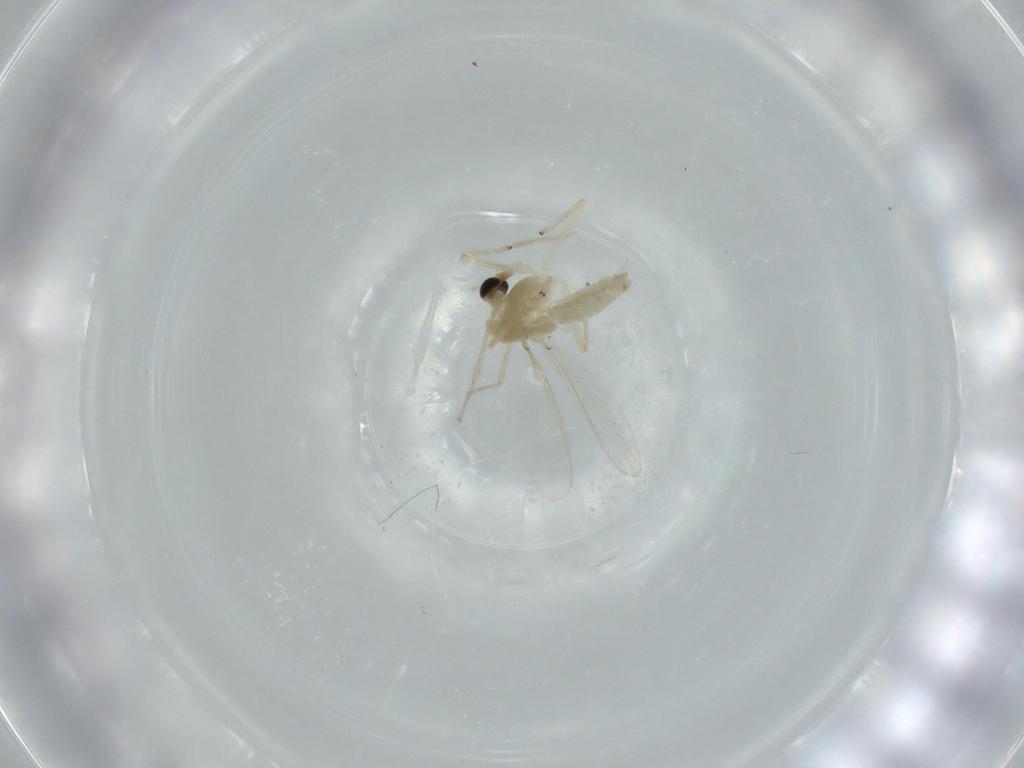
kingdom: Animalia
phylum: Arthropoda
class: Insecta
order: Diptera
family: Chironomidae
